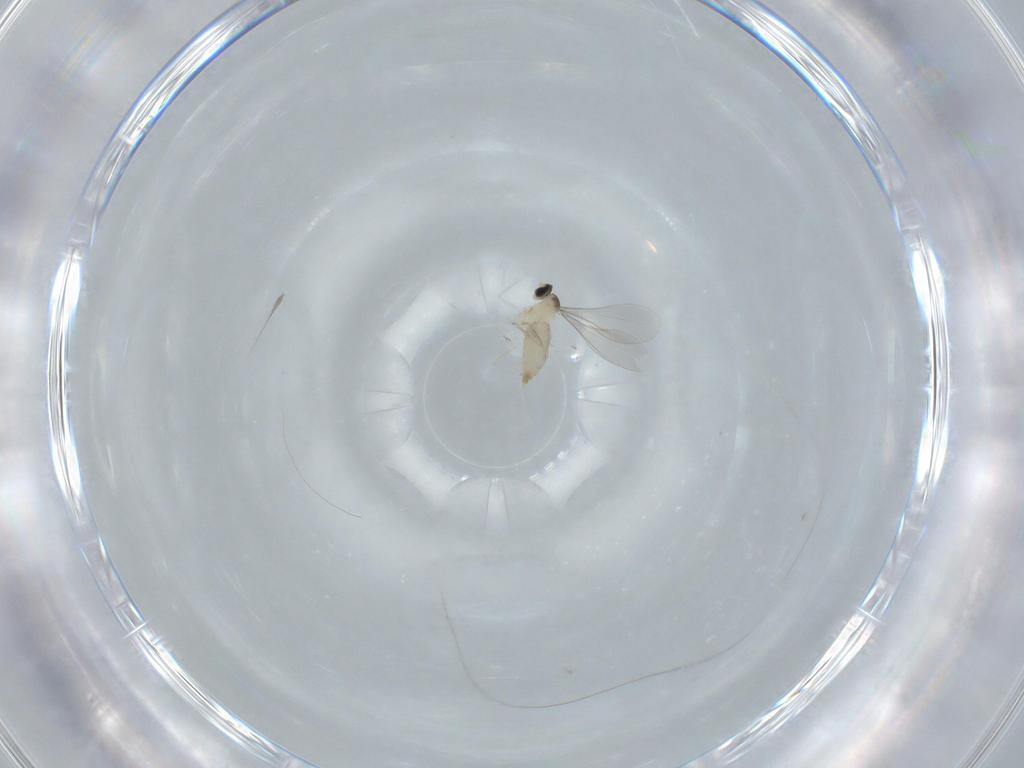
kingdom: Animalia
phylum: Arthropoda
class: Insecta
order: Diptera
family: Cecidomyiidae
